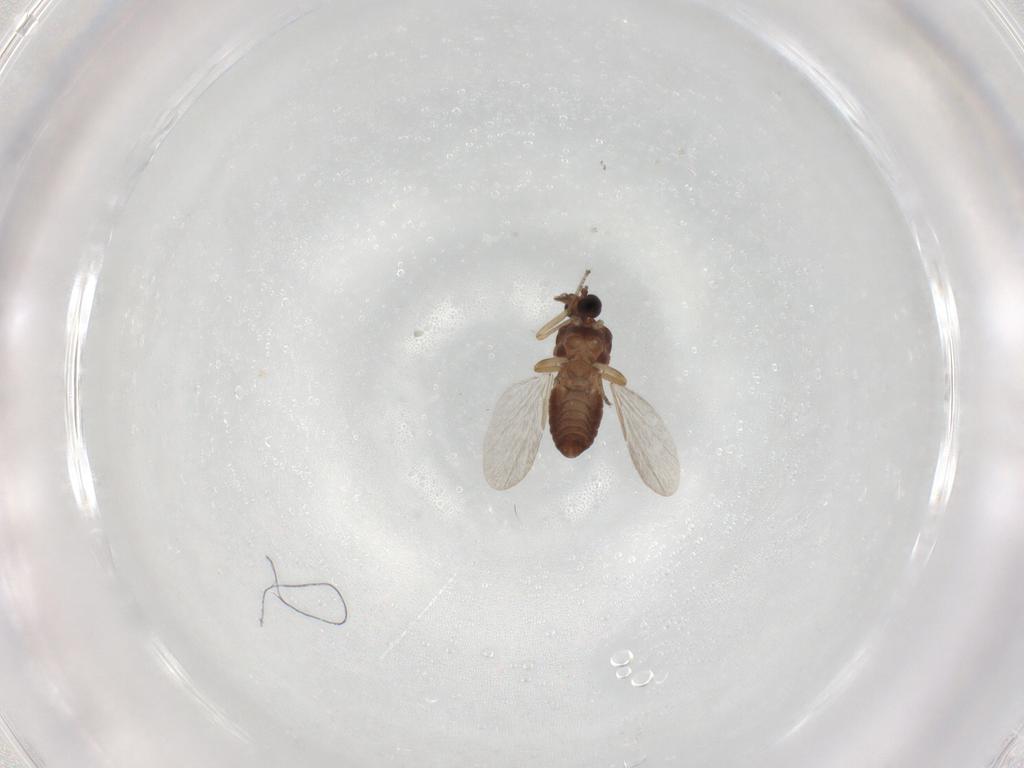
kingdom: Animalia
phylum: Arthropoda
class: Insecta
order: Diptera
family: Ceratopogonidae
